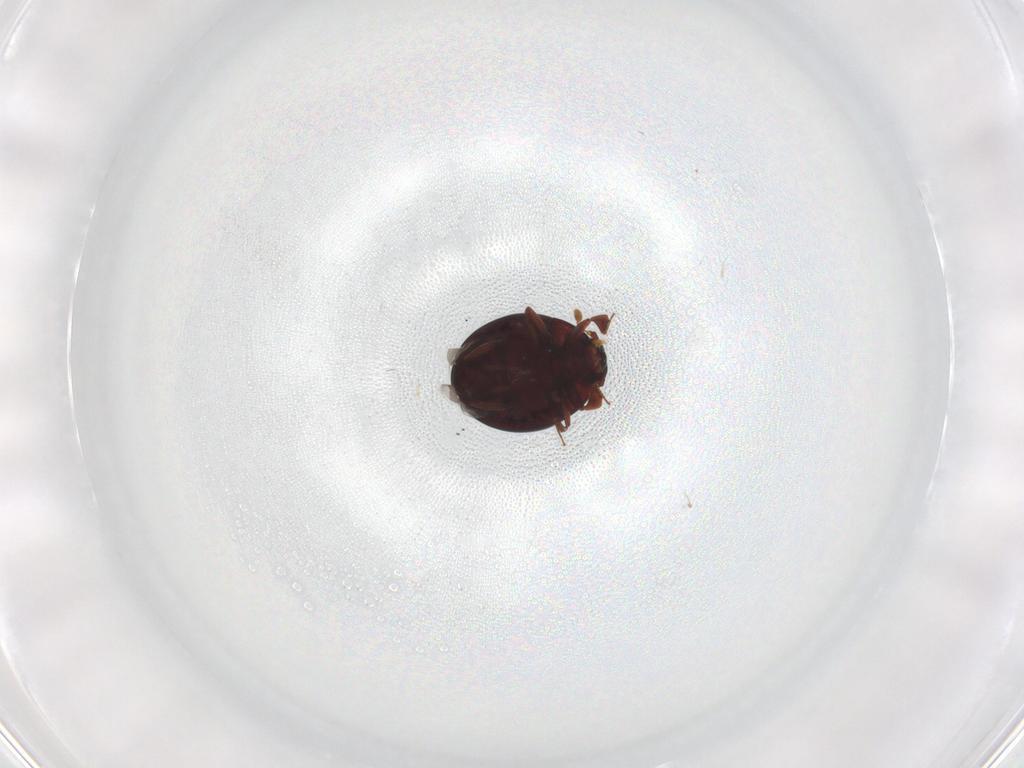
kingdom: Animalia
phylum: Arthropoda
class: Insecta
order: Coleoptera
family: Histeridae
